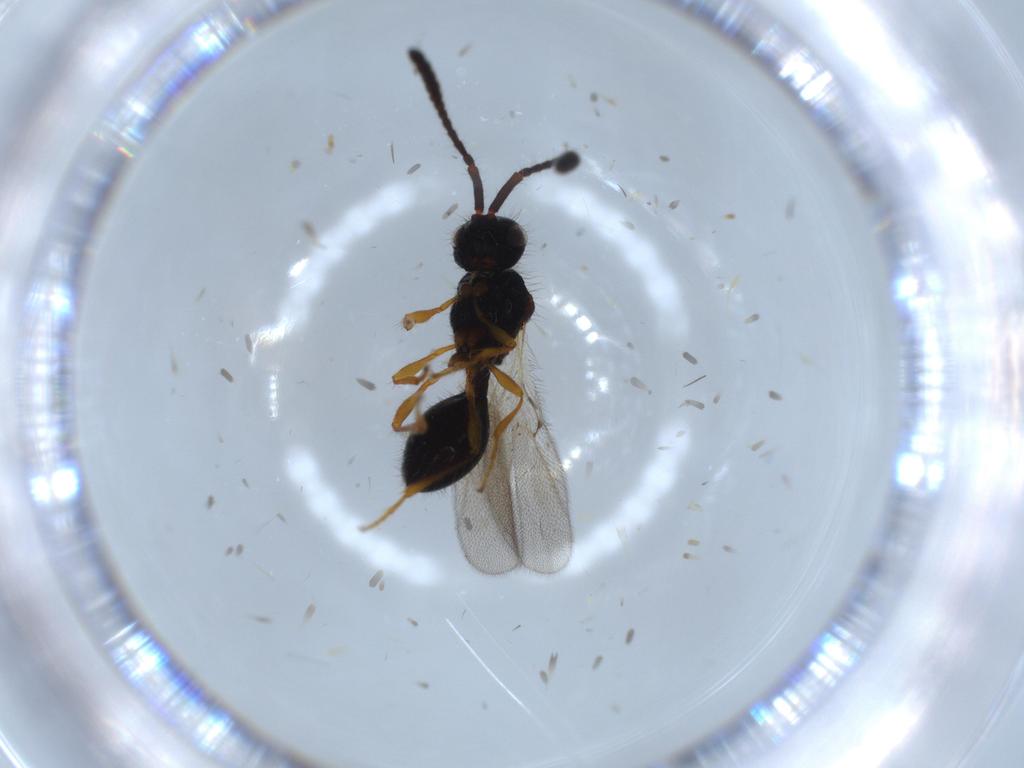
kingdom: Animalia
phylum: Arthropoda
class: Insecta
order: Hymenoptera
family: Diapriidae
